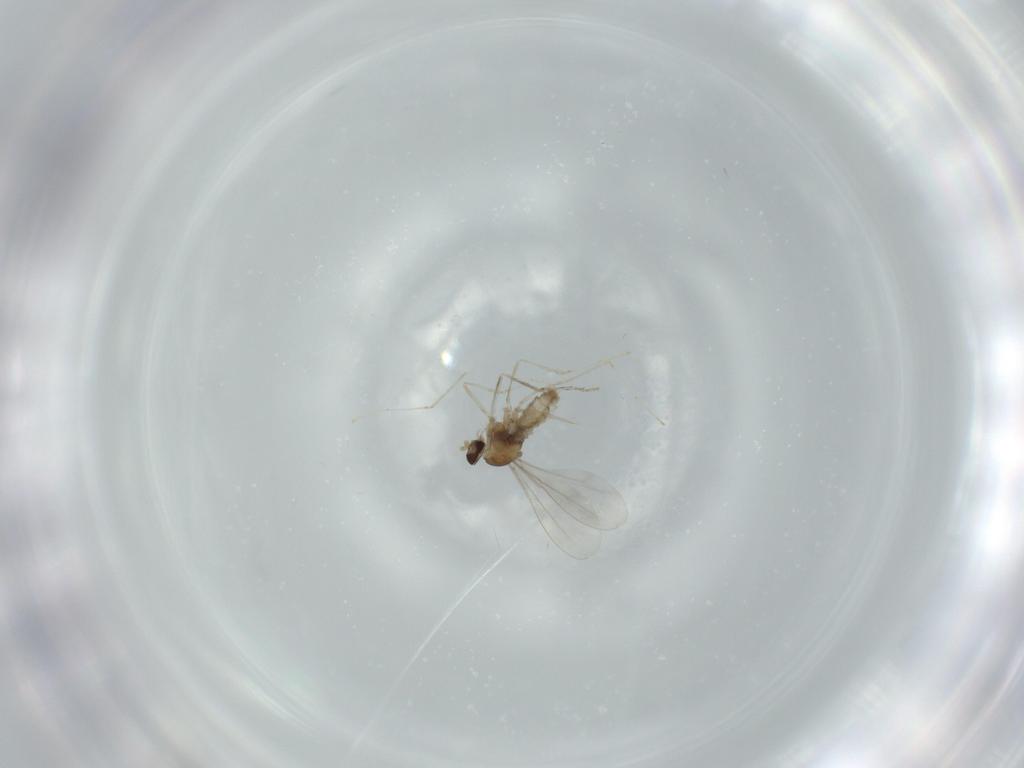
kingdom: Animalia
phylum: Arthropoda
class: Insecta
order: Diptera
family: Cecidomyiidae
